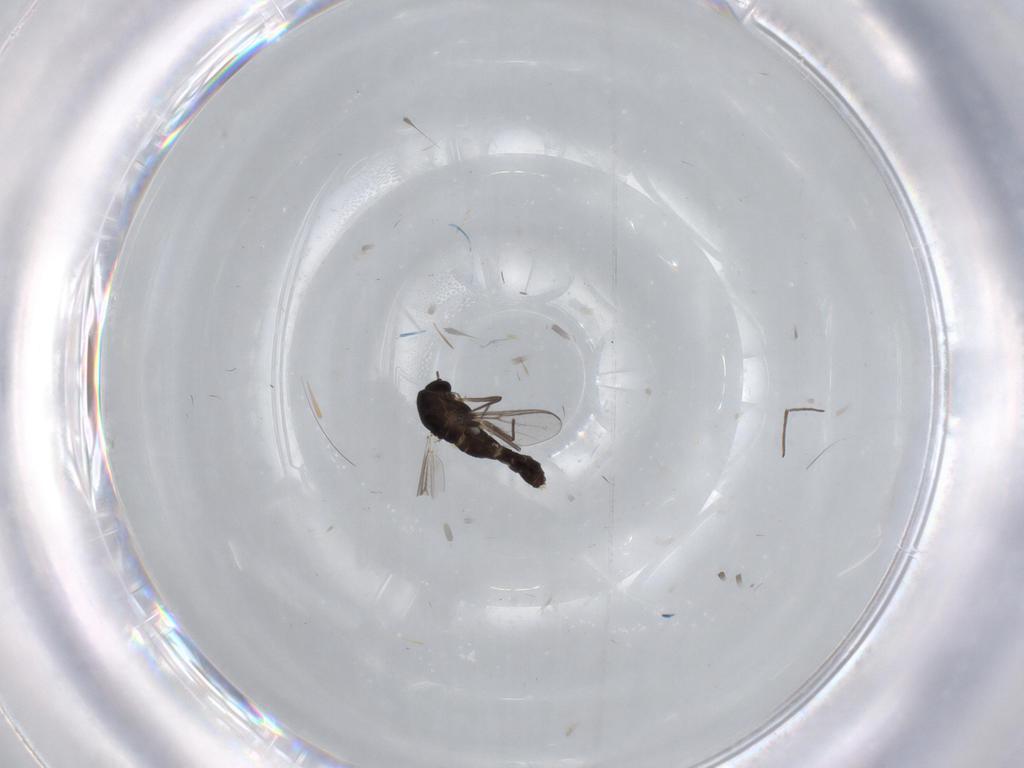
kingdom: Animalia
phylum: Arthropoda
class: Insecta
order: Diptera
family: Chironomidae
